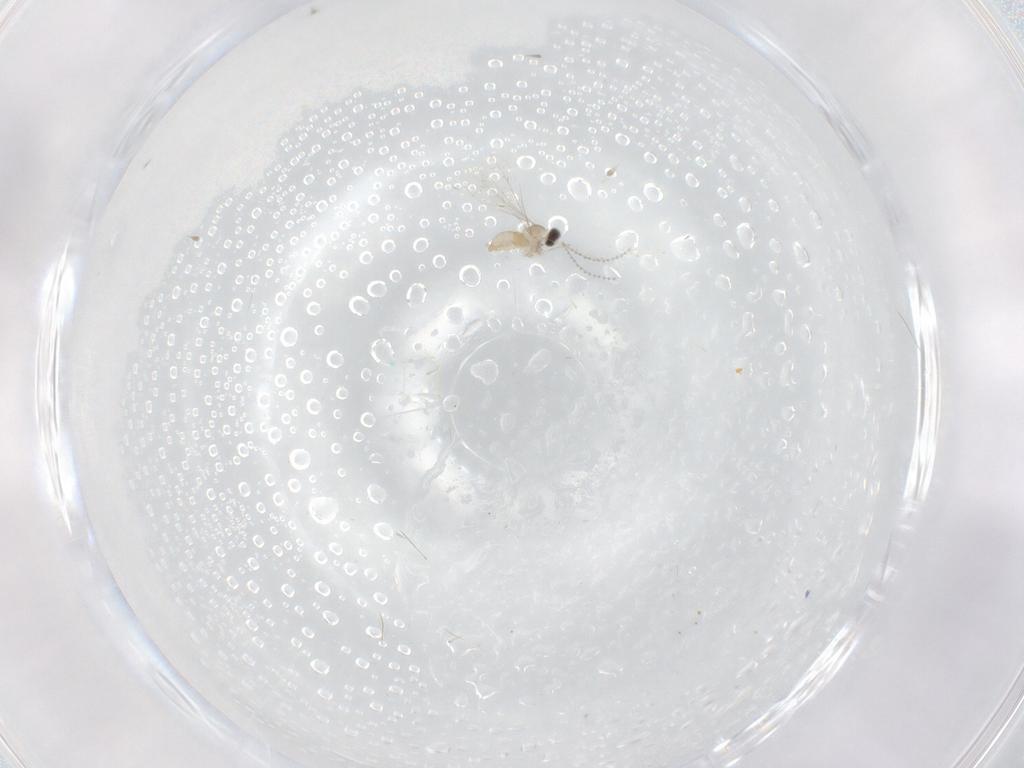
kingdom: Animalia
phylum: Arthropoda
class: Insecta
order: Diptera
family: Cecidomyiidae
